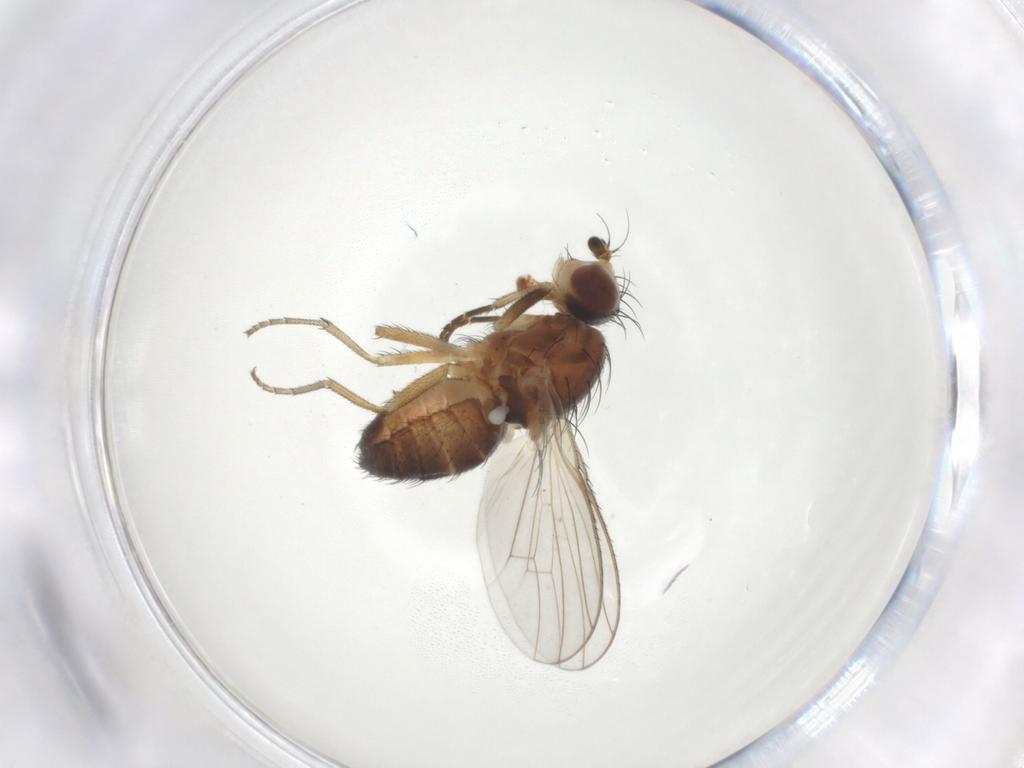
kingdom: Animalia
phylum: Arthropoda
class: Insecta
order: Diptera
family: Heleomyzidae
